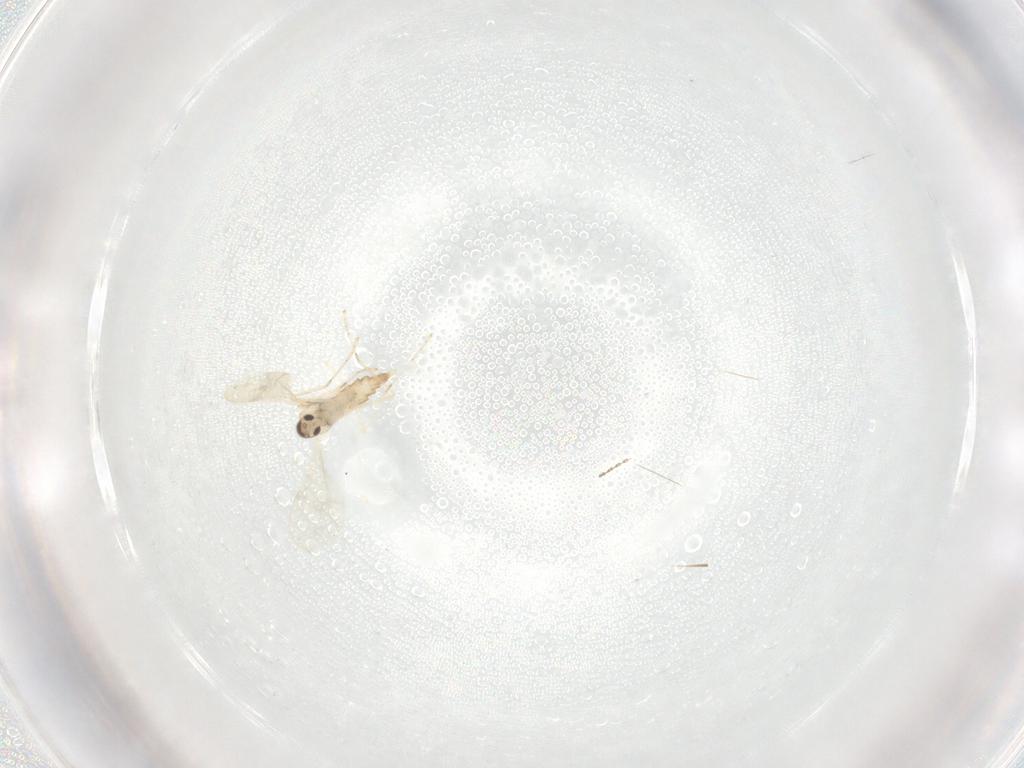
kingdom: Animalia
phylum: Arthropoda
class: Insecta
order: Diptera
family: Cecidomyiidae
